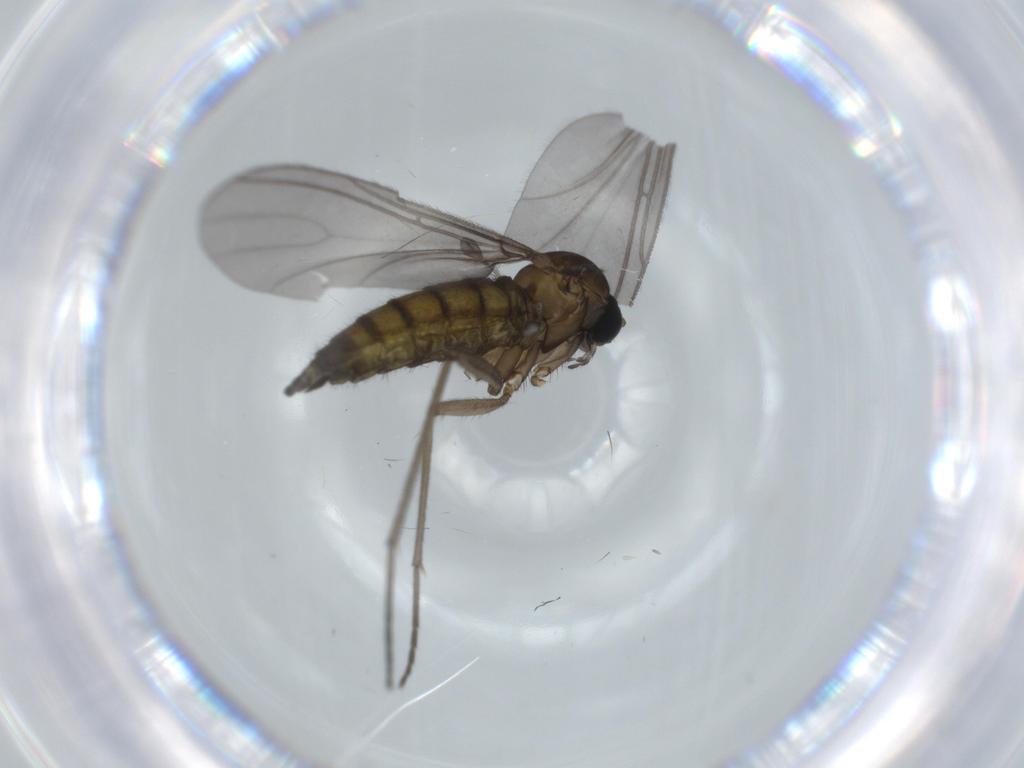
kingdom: Animalia
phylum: Arthropoda
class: Insecta
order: Diptera
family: Sciaridae
